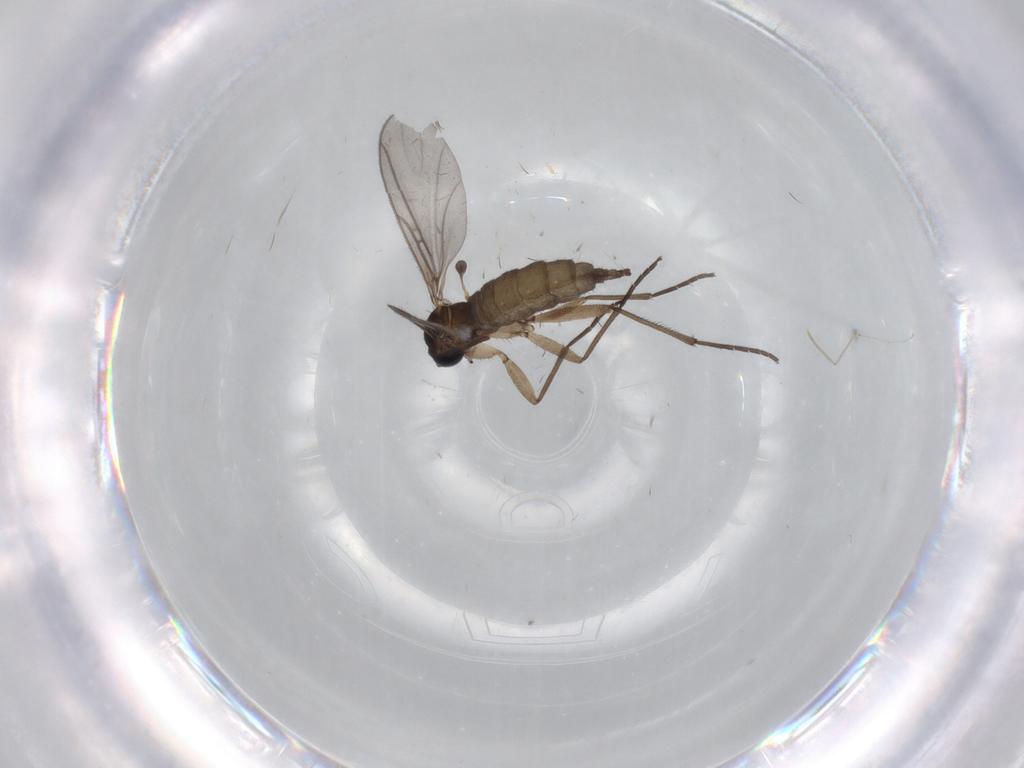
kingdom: Animalia
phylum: Arthropoda
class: Insecta
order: Diptera
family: Sciaridae
